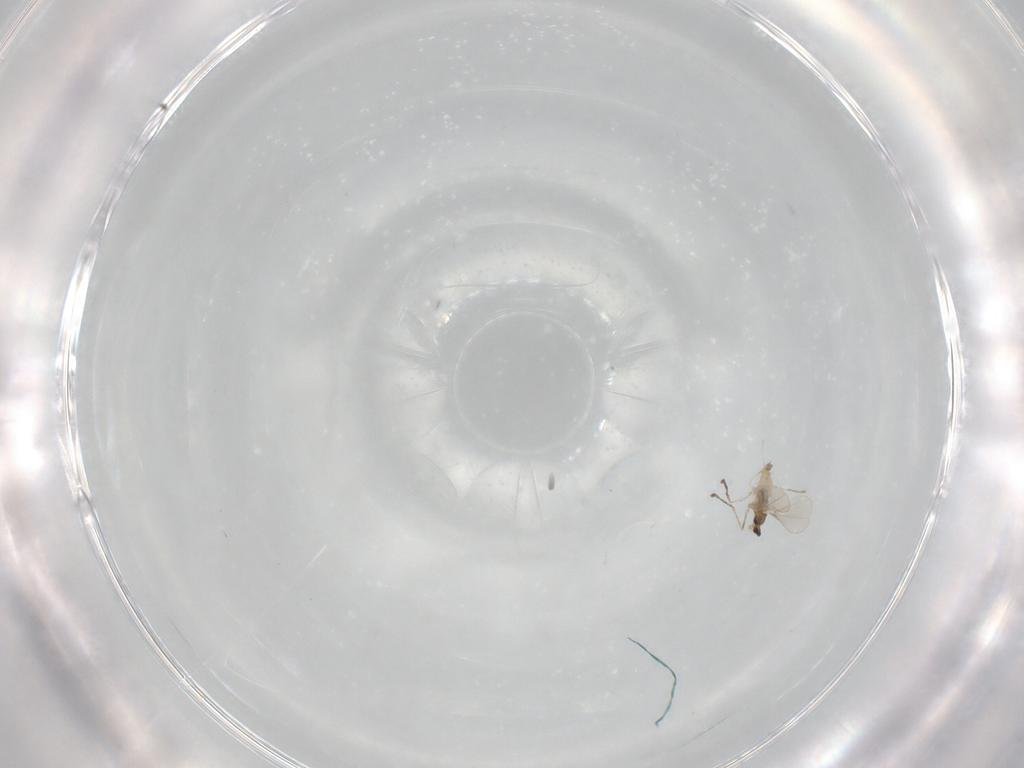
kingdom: Animalia
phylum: Arthropoda
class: Insecta
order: Diptera
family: Cecidomyiidae
